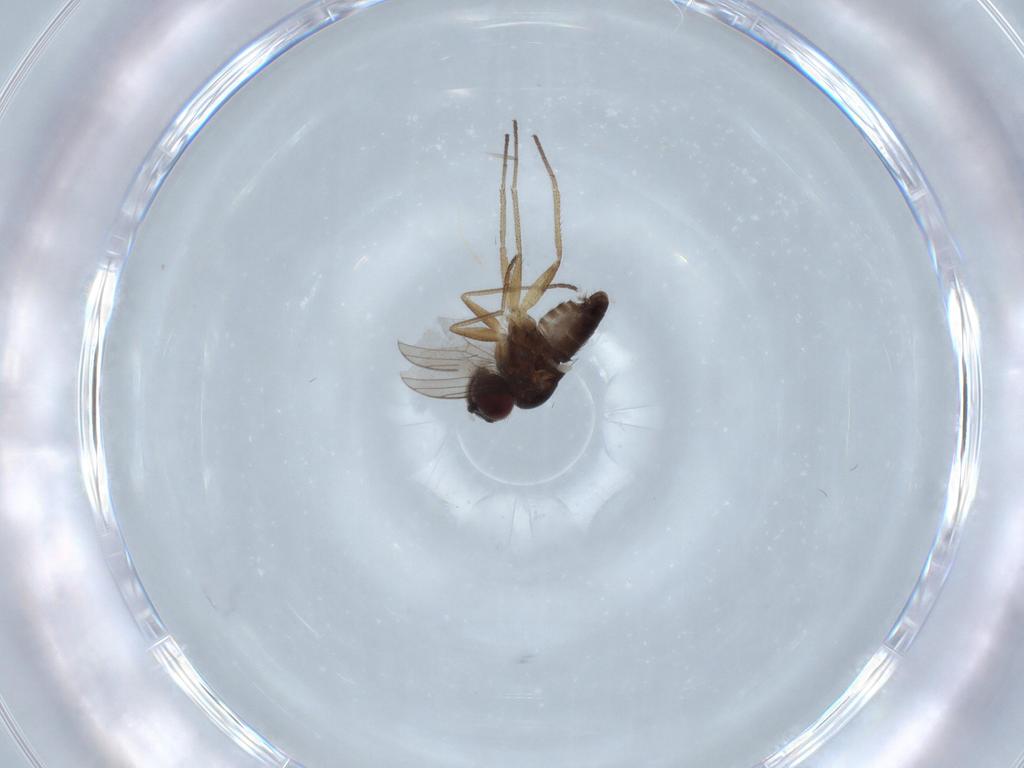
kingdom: Animalia
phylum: Arthropoda
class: Insecta
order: Diptera
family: Dolichopodidae
